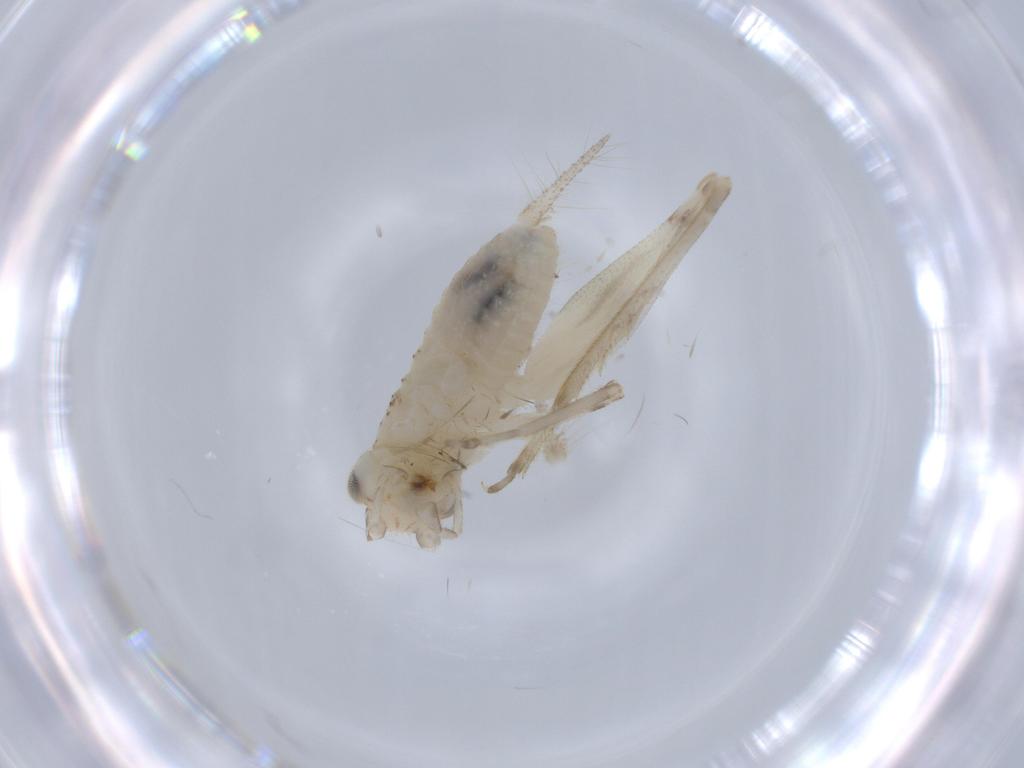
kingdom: Animalia
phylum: Arthropoda
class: Insecta
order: Orthoptera
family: Trigonidiidae
